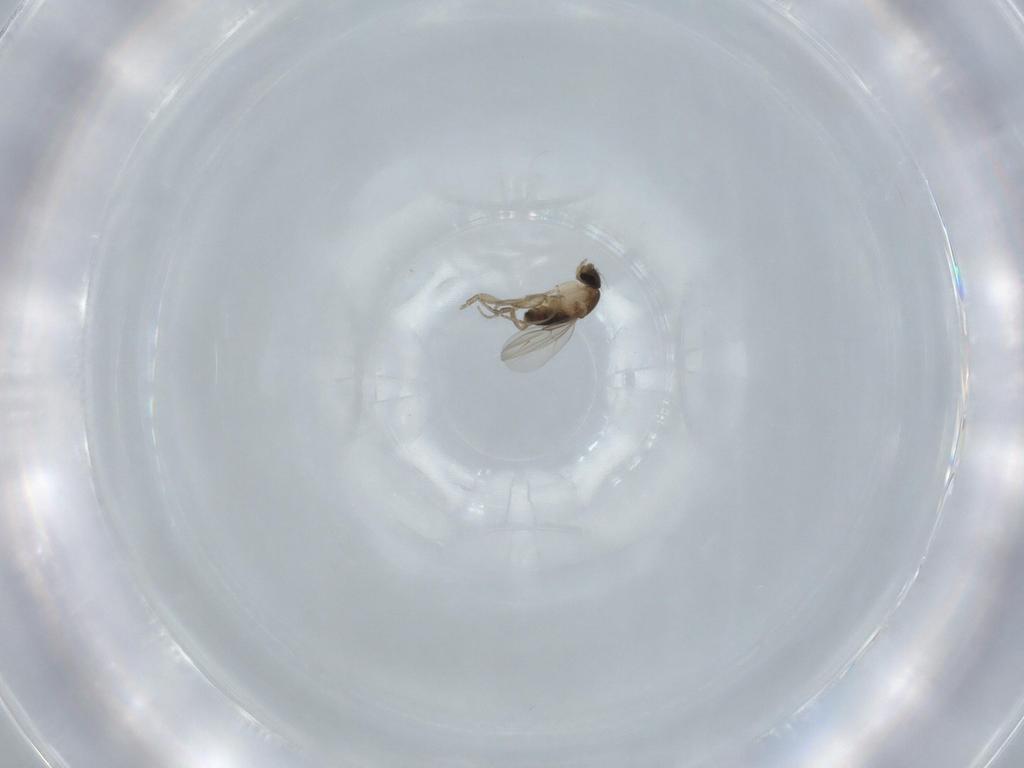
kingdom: Animalia
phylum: Arthropoda
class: Insecta
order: Diptera
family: Phoridae
